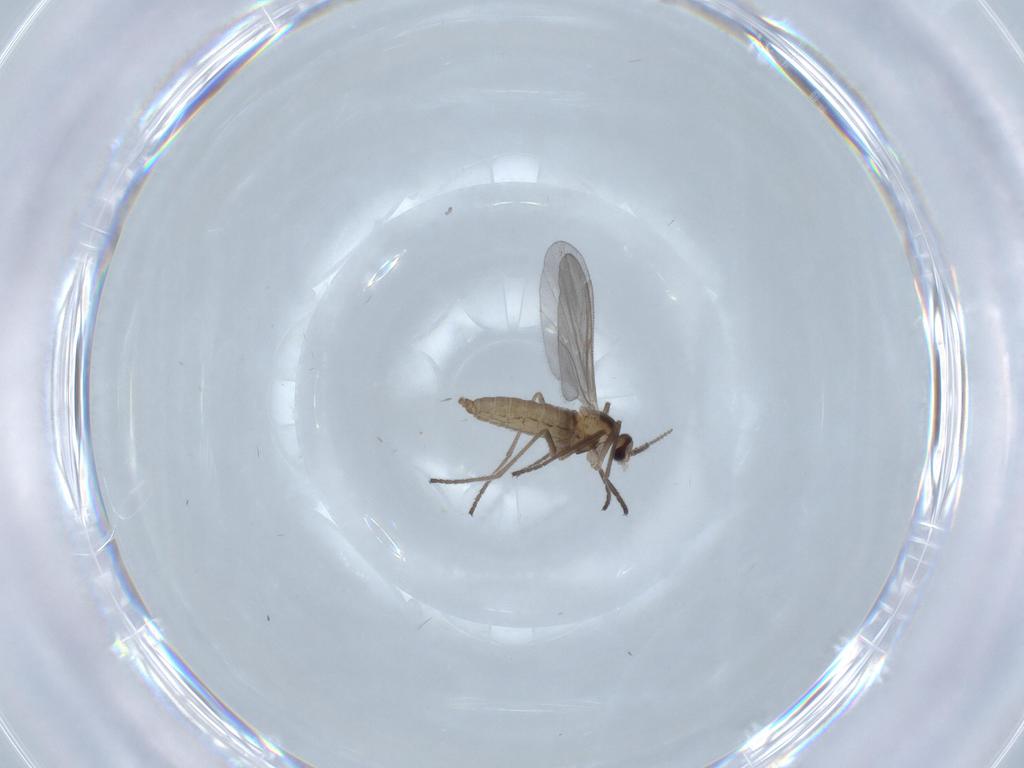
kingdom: Animalia
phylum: Arthropoda
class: Insecta
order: Diptera
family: Cecidomyiidae
